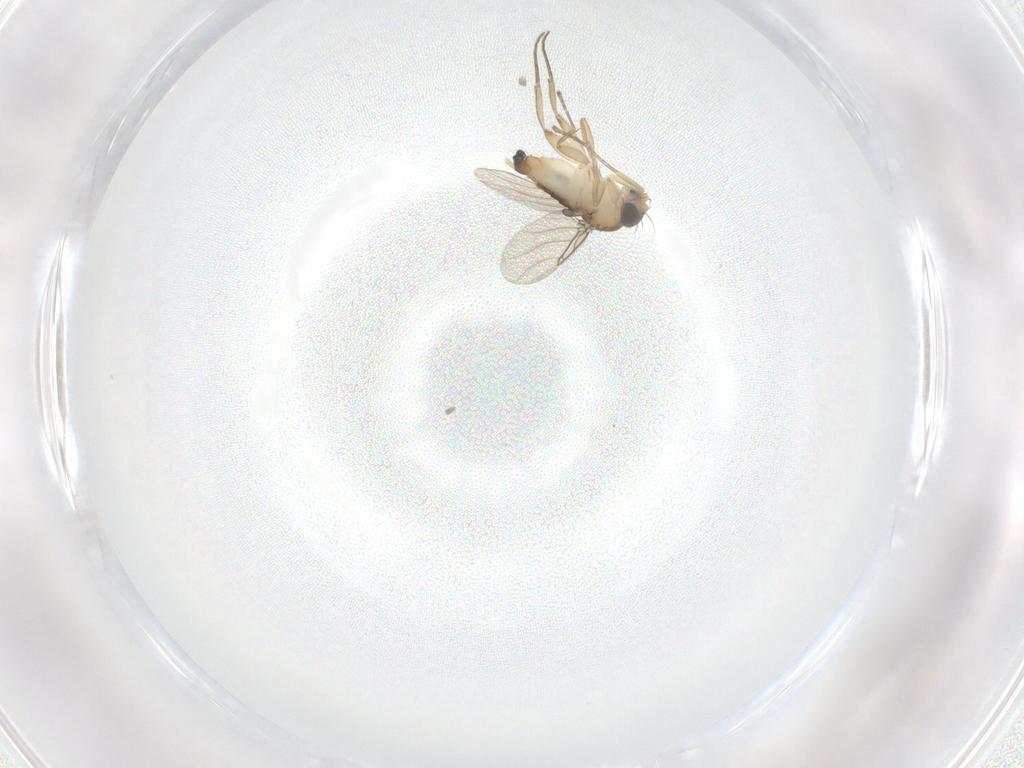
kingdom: Animalia
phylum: Arthropoda
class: Insecta
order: Diptera
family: Phoridae
